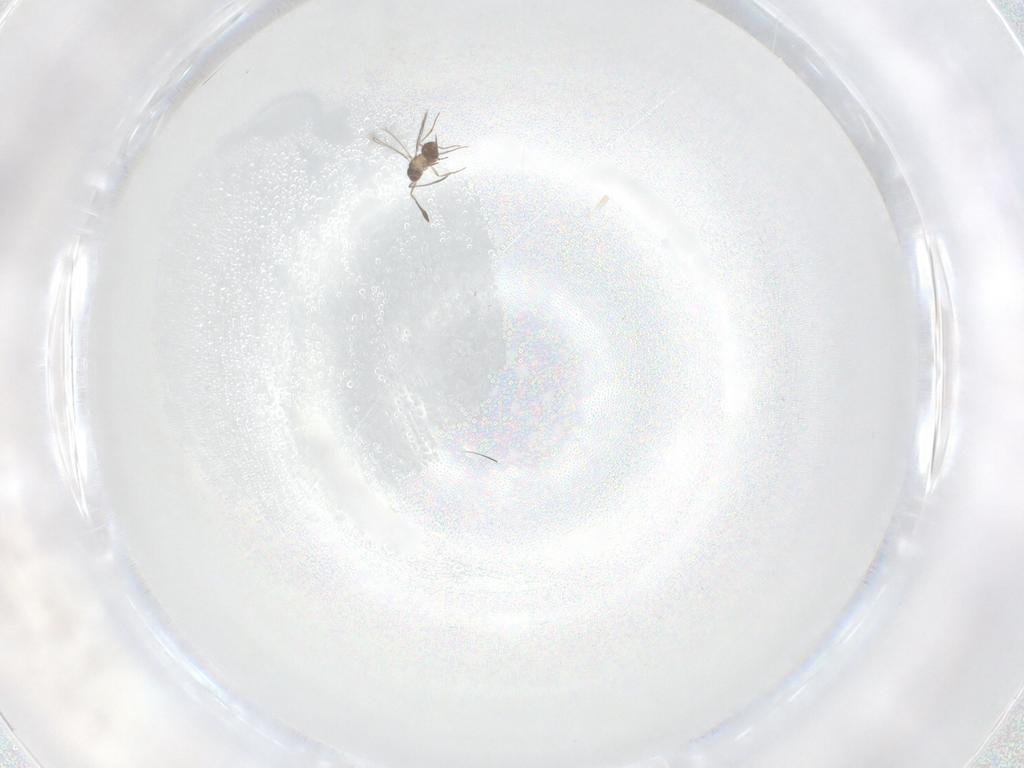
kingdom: Animalia
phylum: Arthropoda
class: Insecta
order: Hymenoptera
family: Mymaridae
